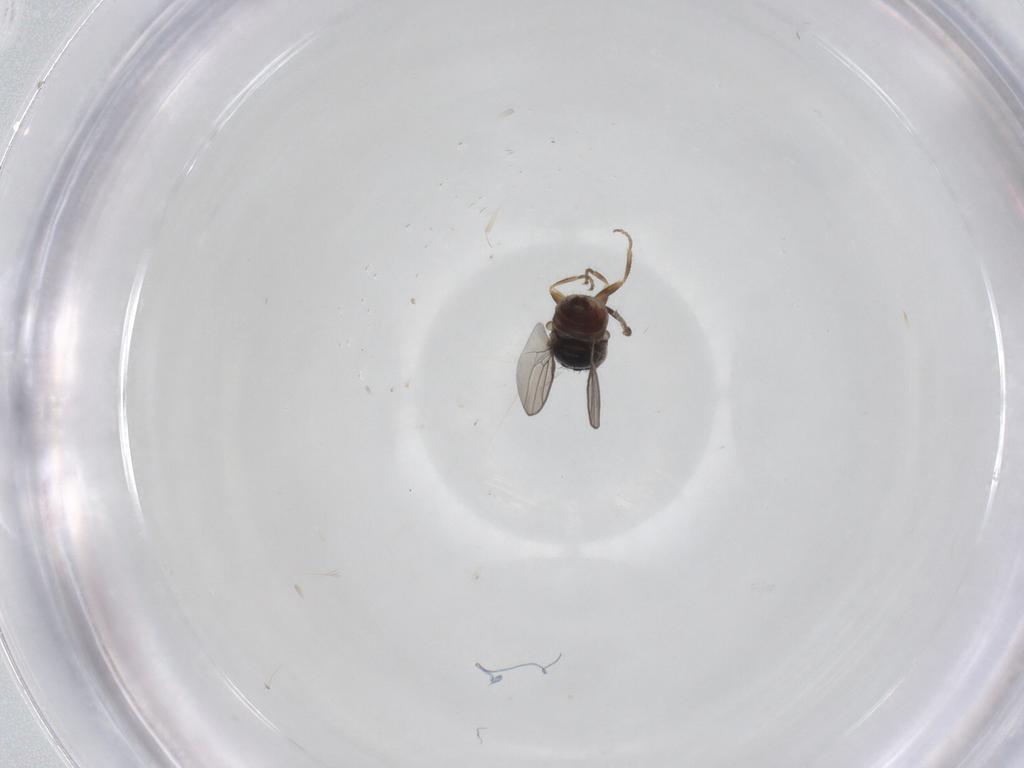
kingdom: Animalia
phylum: Arthropoda
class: Insecta
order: Diptera
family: Chloropidae
